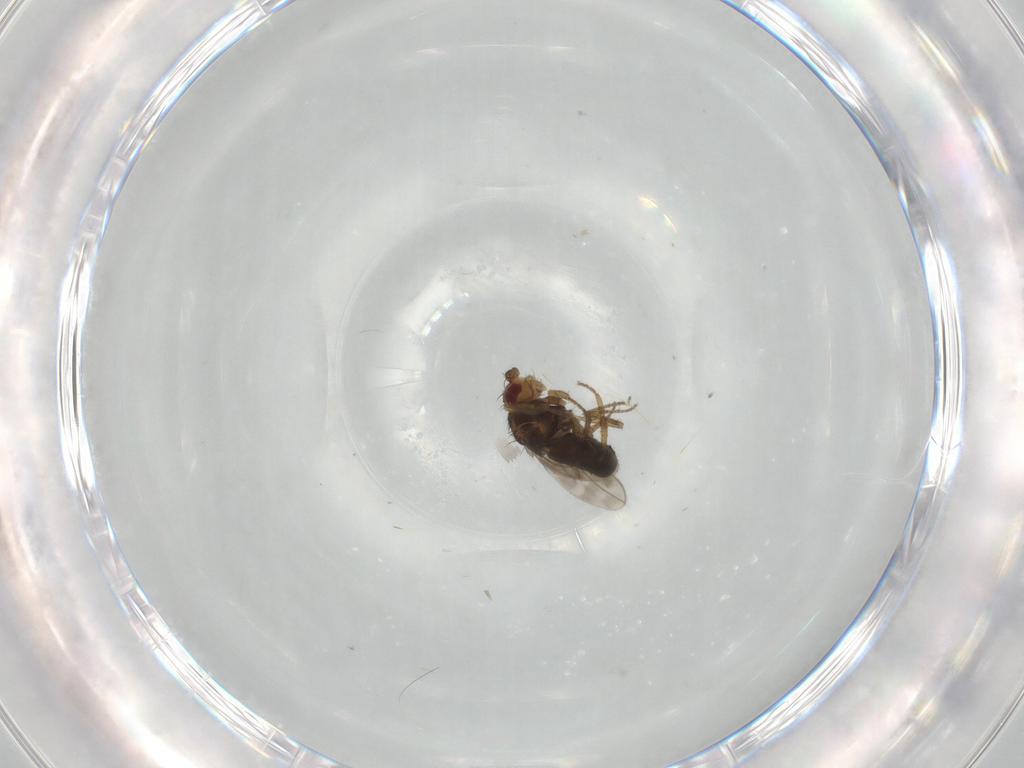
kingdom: Animalia
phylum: Arthropoda
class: Insecta
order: Diptera
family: Sphaeroceridae
